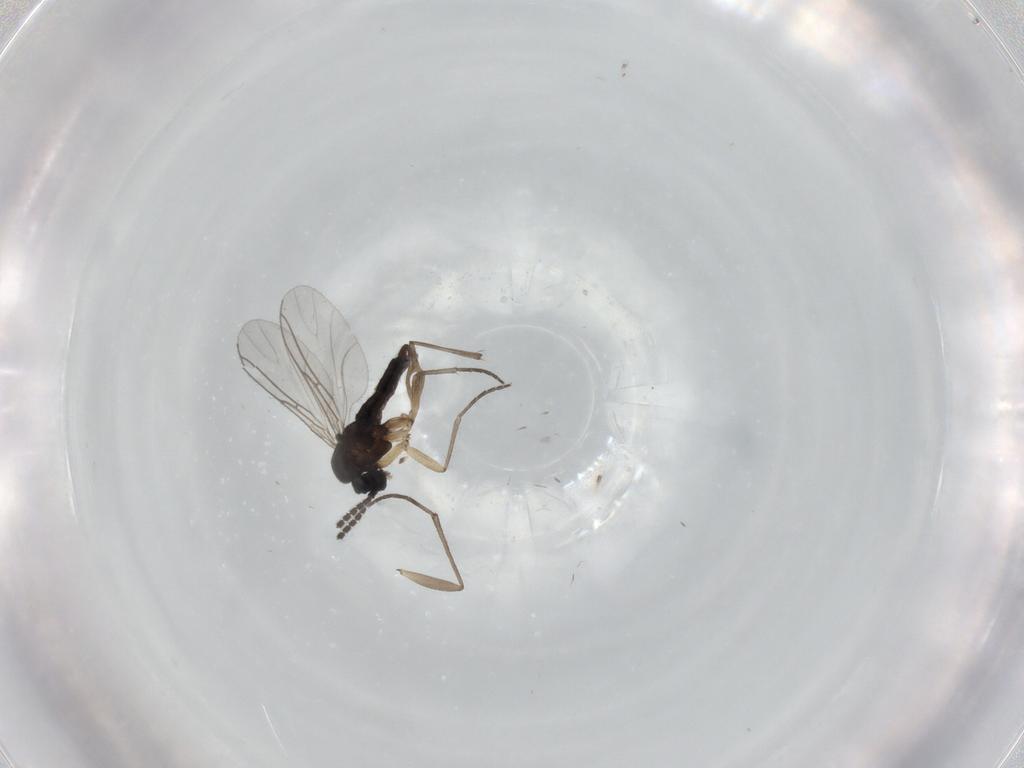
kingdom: Animalia
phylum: Arthropoda
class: Insecta
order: Diptera
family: Sciaridae
